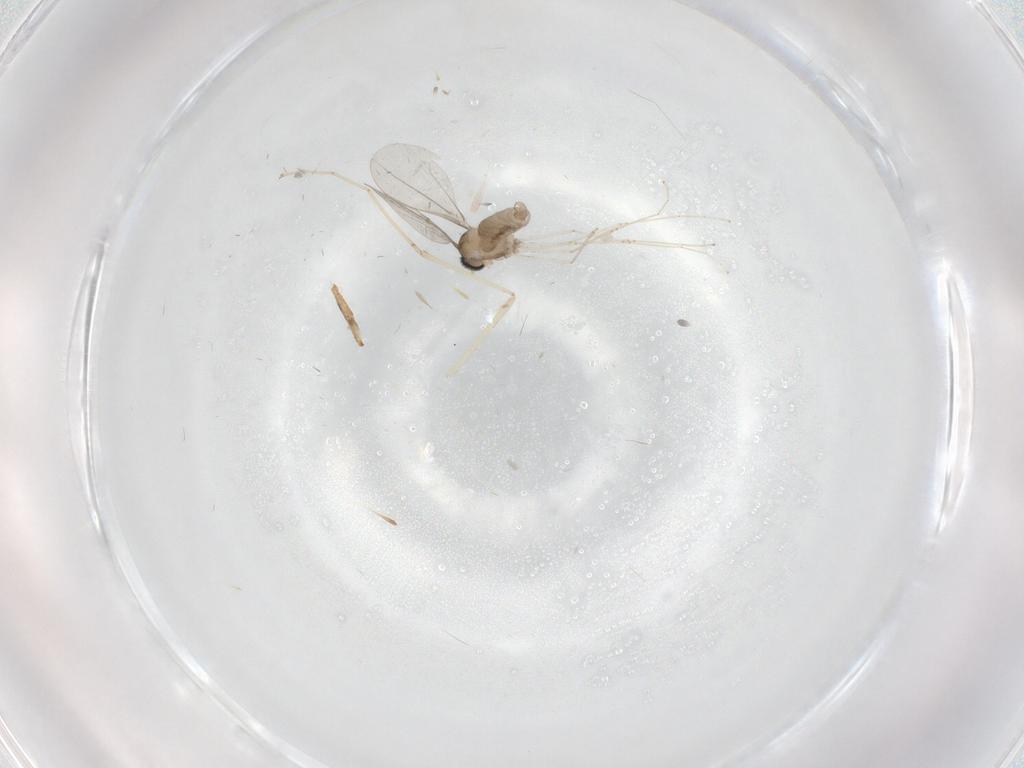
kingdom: Animalia
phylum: Arthropoda
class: Insecta
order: Diptera
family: Cecidomyiidae
